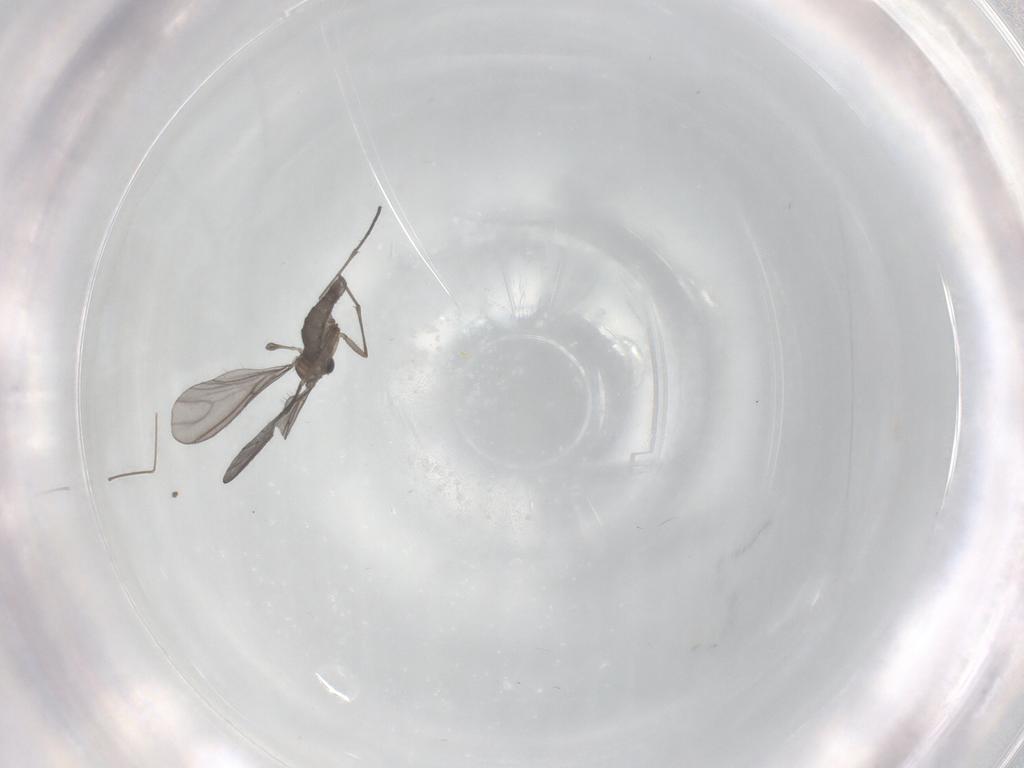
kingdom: Animalia
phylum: Arthropoda
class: Insecta
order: Diptera
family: Sciaridae
